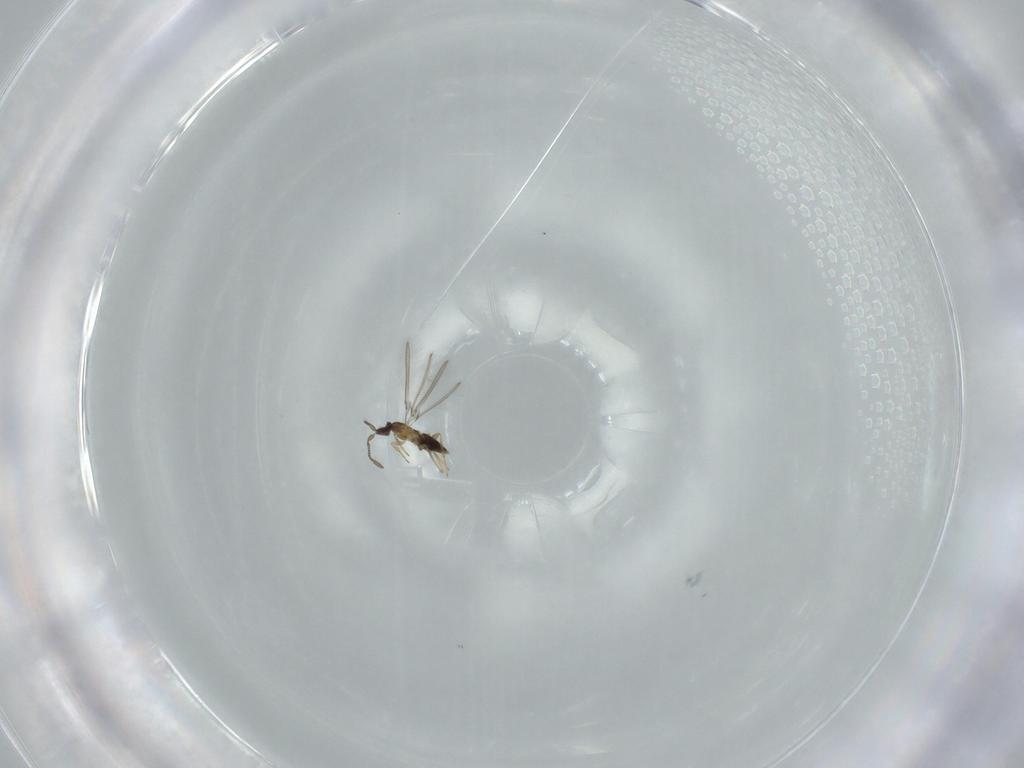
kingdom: Animalia
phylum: Arthropoda
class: Insecta
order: Hymenoptera
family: Mymaridae
